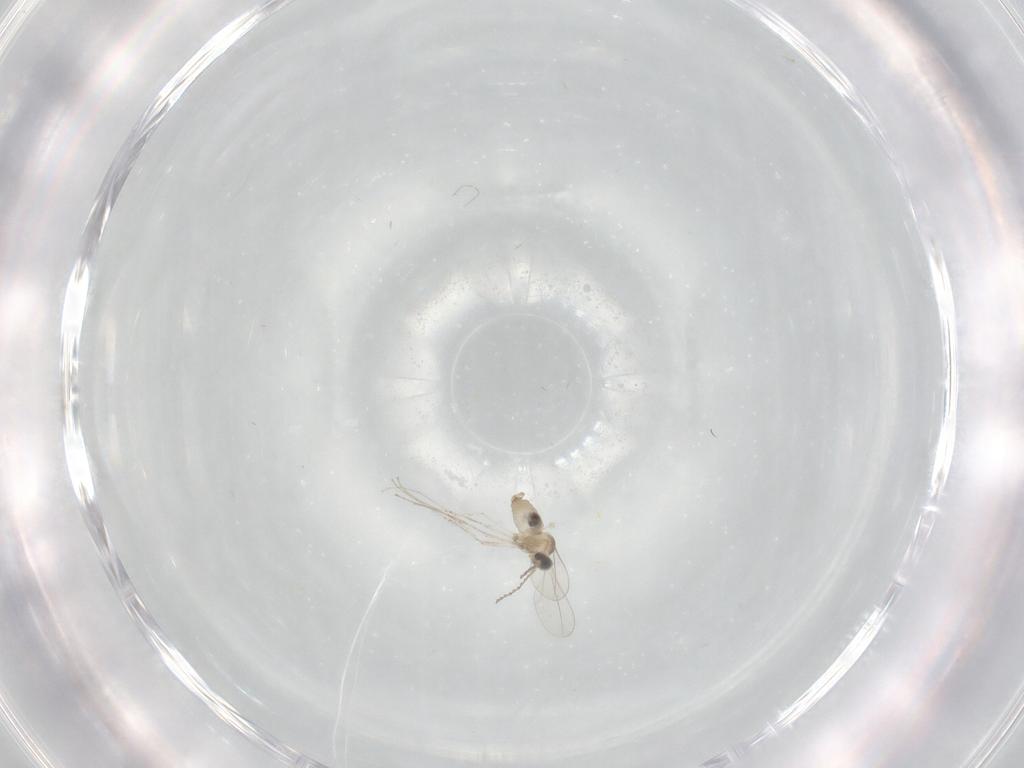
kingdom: Animalia
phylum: Arthropoda
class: Insecta
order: Diptera
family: Cecidomyiidae
